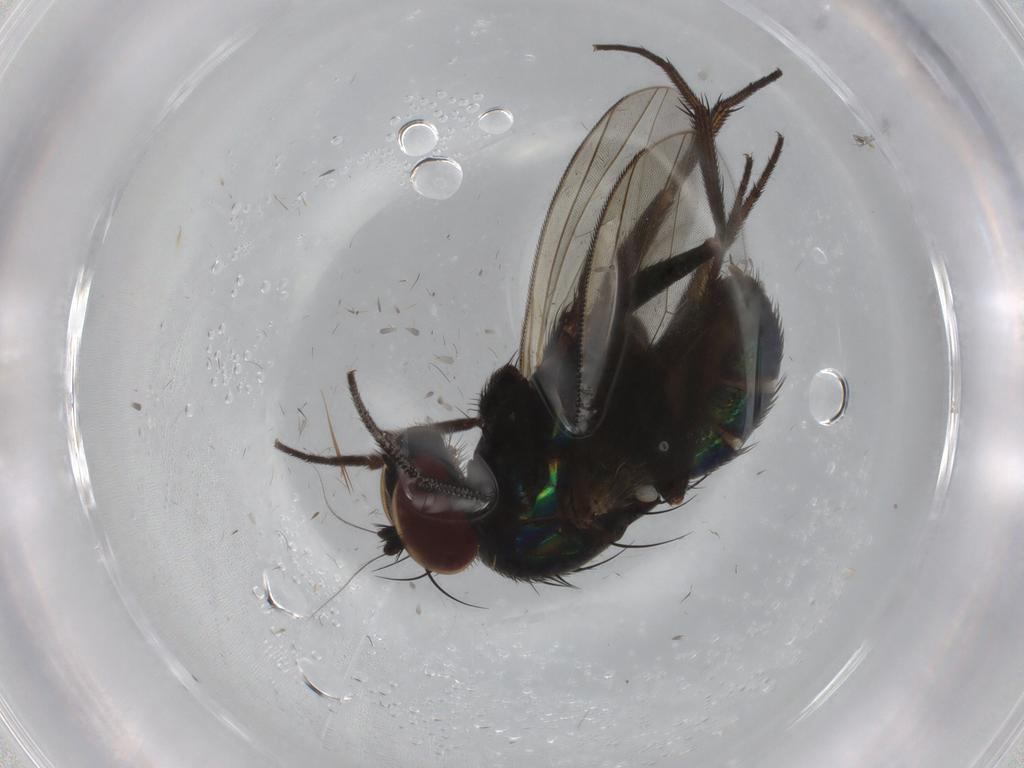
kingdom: Animalia
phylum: Arthropoda
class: Insecta
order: Diptera
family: Dolichopodidae
